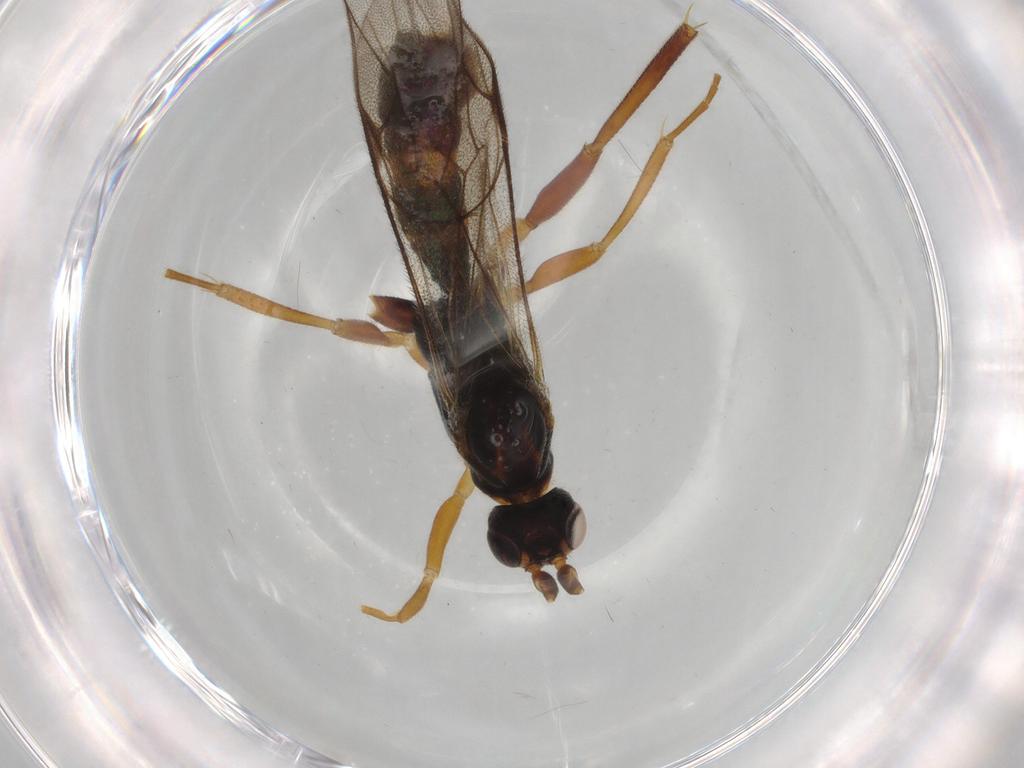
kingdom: Animalia
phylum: Arthropoda
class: Insecta
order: Hymenoptera
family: Ichneumonidae
